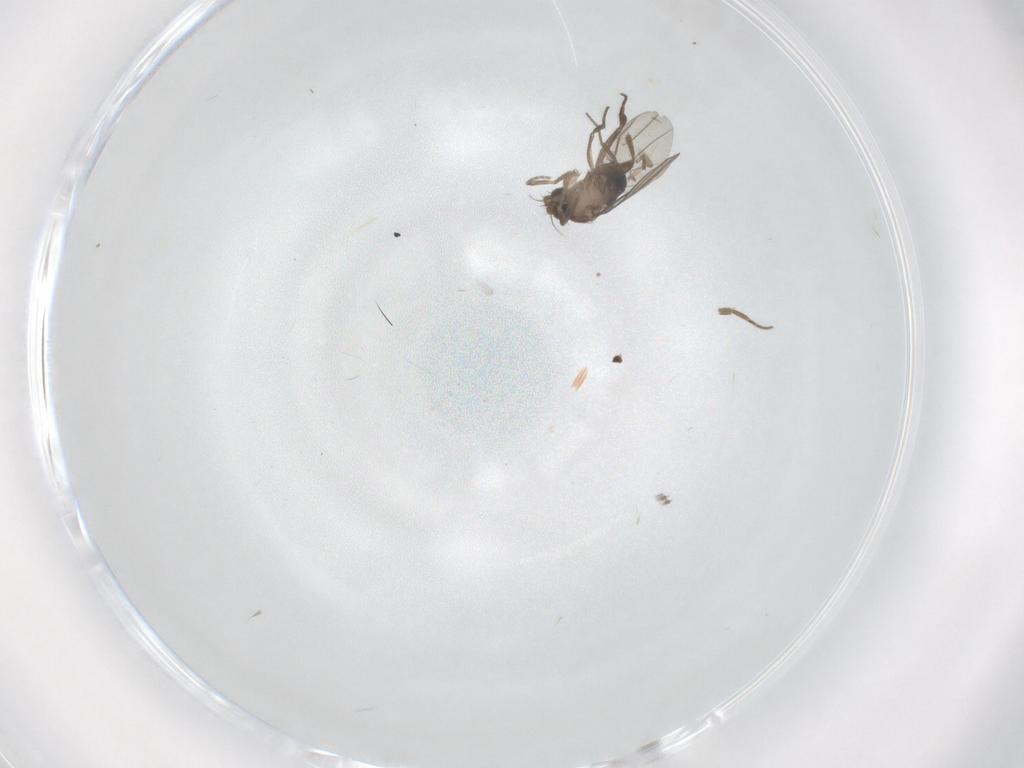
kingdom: Animalia
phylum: Arthropoda
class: Insecta
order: Diptera
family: Phoridae
